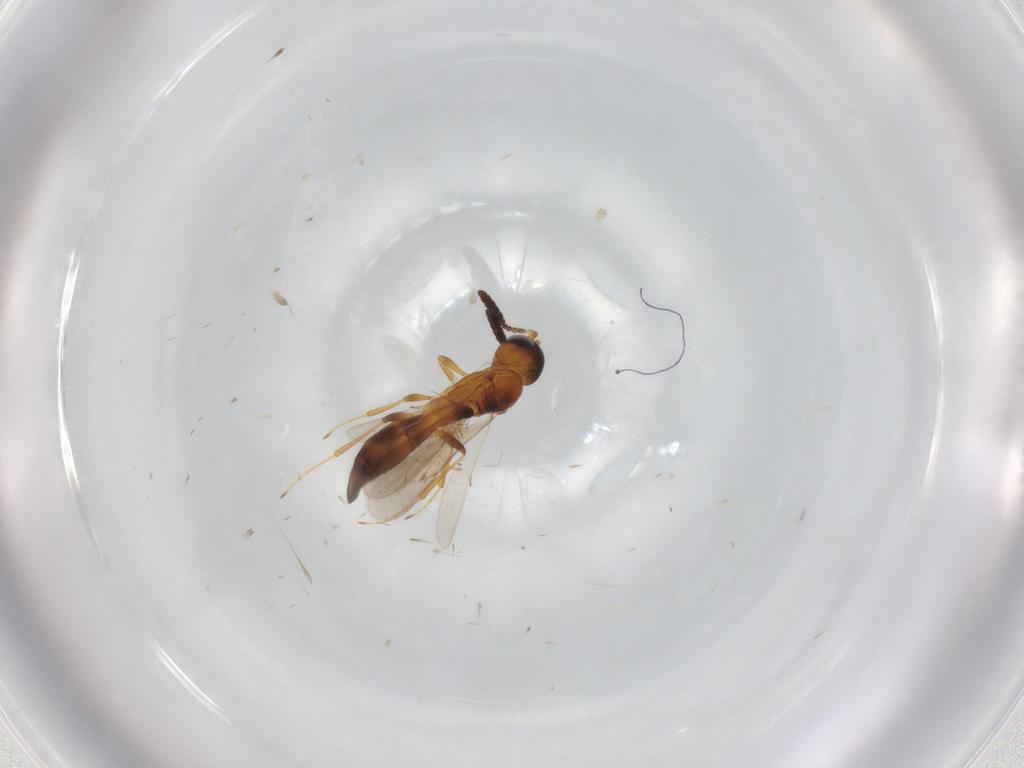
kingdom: Animalia
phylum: Arthropoda
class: Insecta
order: Hymenoptera
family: Scelionidae
